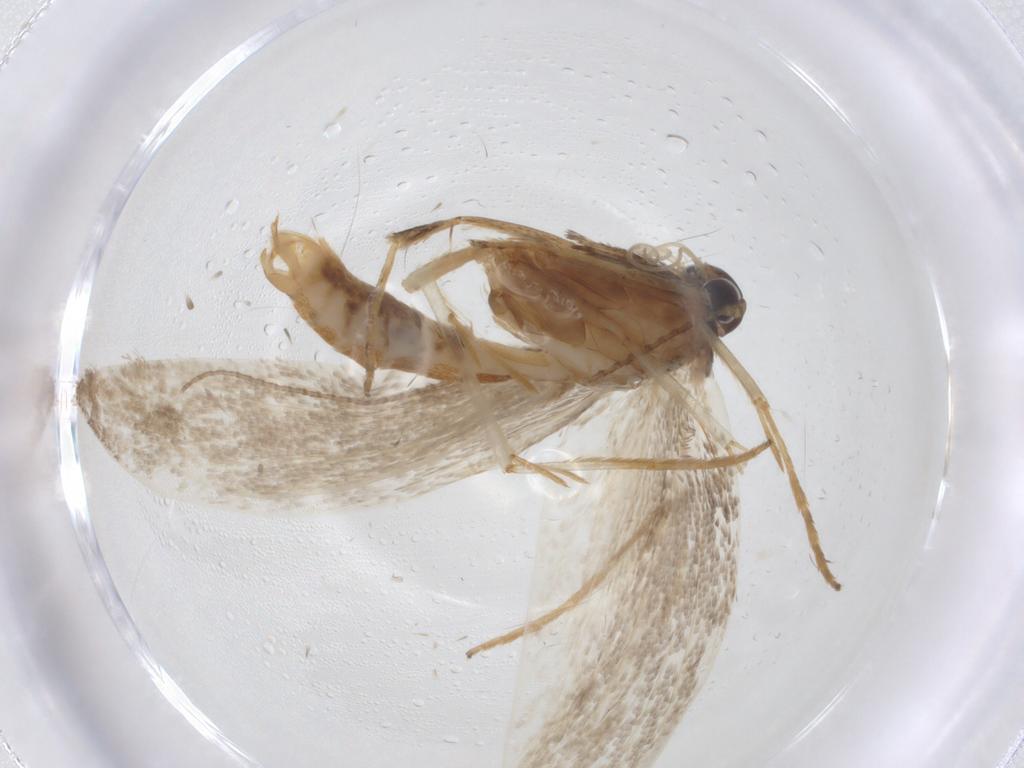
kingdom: Animalia
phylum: Arthropoda
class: Insecta
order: Lepidoptera
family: Erebidae
